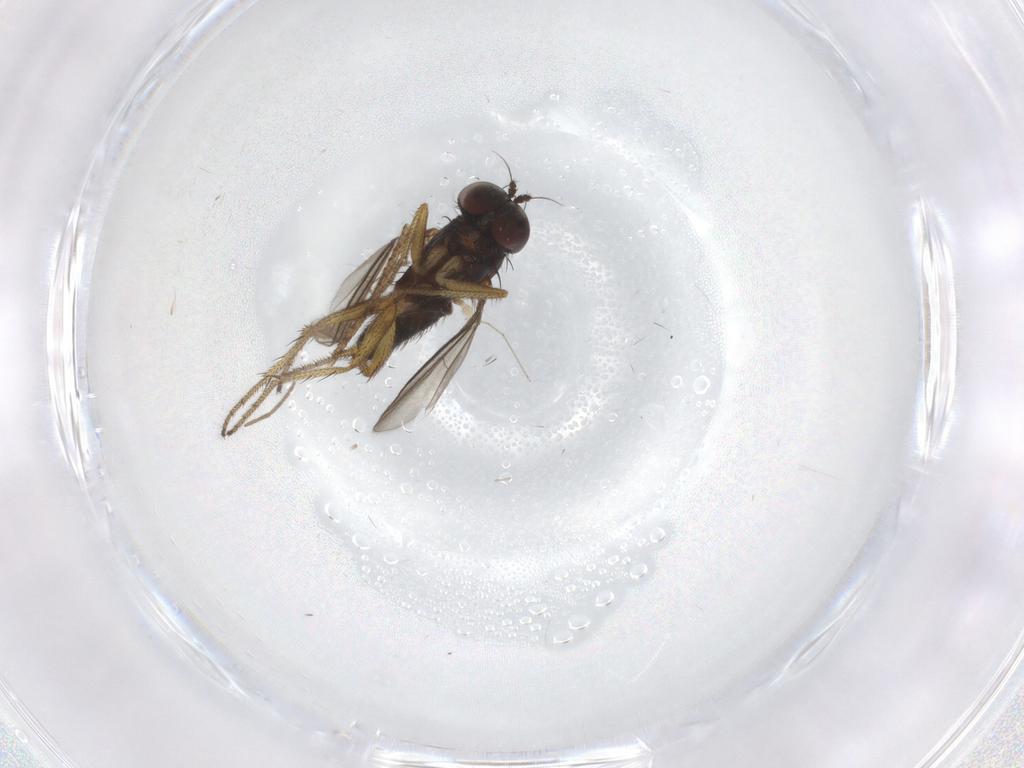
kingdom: Animalia
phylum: Arthropoda
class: Insecta
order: Diptera
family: Chironomidae
